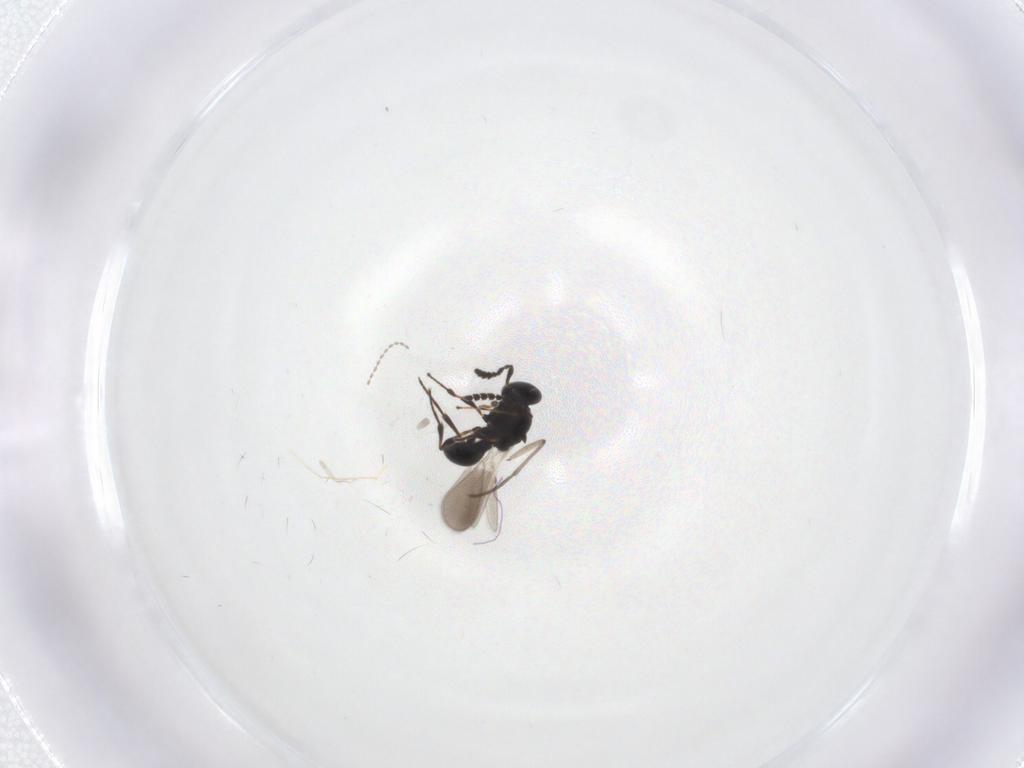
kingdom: Animalia
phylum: Arthropoda
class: Insecta
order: Hymenoptera
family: Platygastridae
